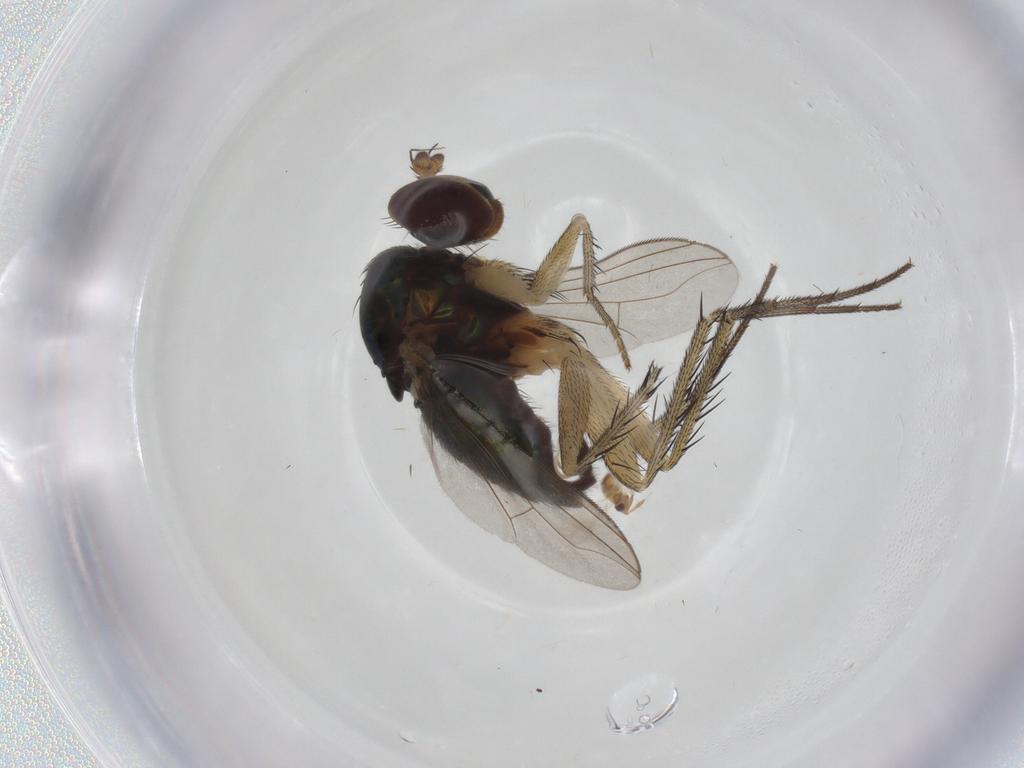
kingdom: Animalia
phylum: Arthropoda
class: Insecta
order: Diptera
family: Dolichopodidae
